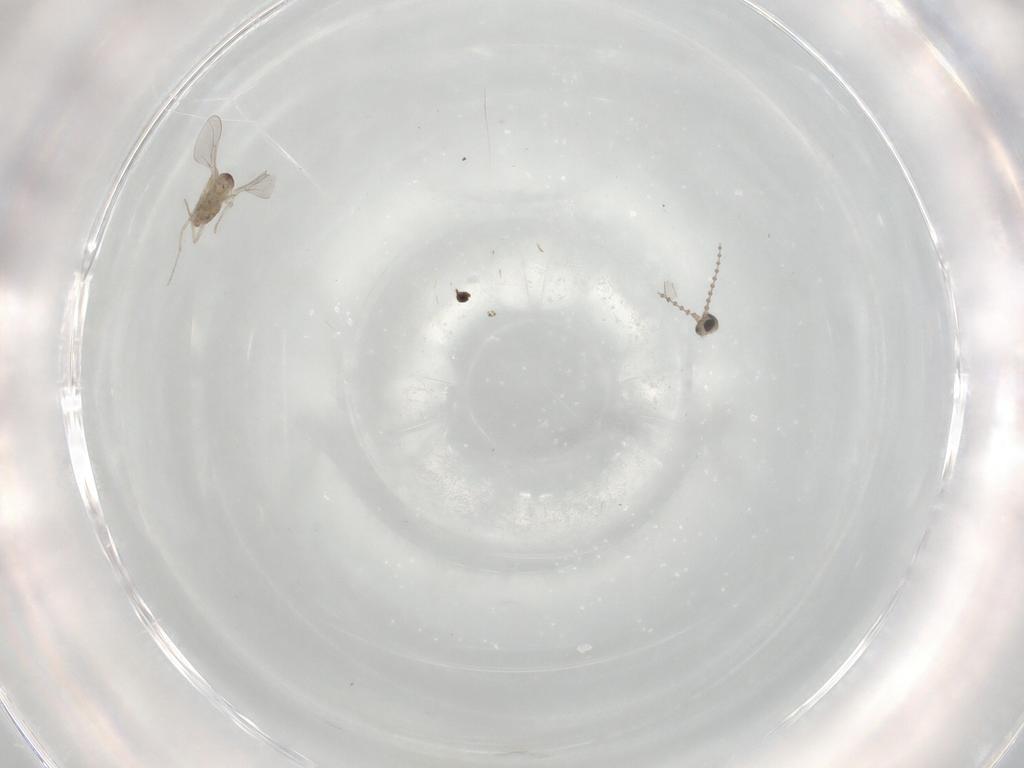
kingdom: Animalia
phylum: Arthropoda
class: Insecta
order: Diptera
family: Cecidomyiidae
